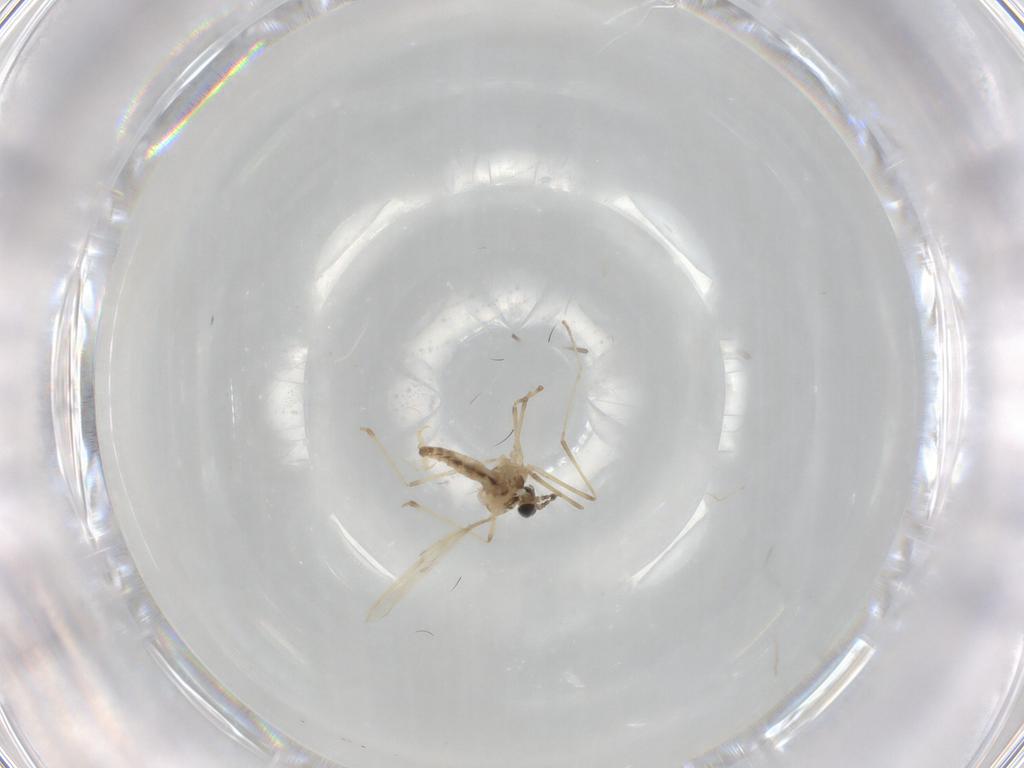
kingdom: Animalia
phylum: Arthropoda
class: Insecta
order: Diptera
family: Cecidomyiidae
